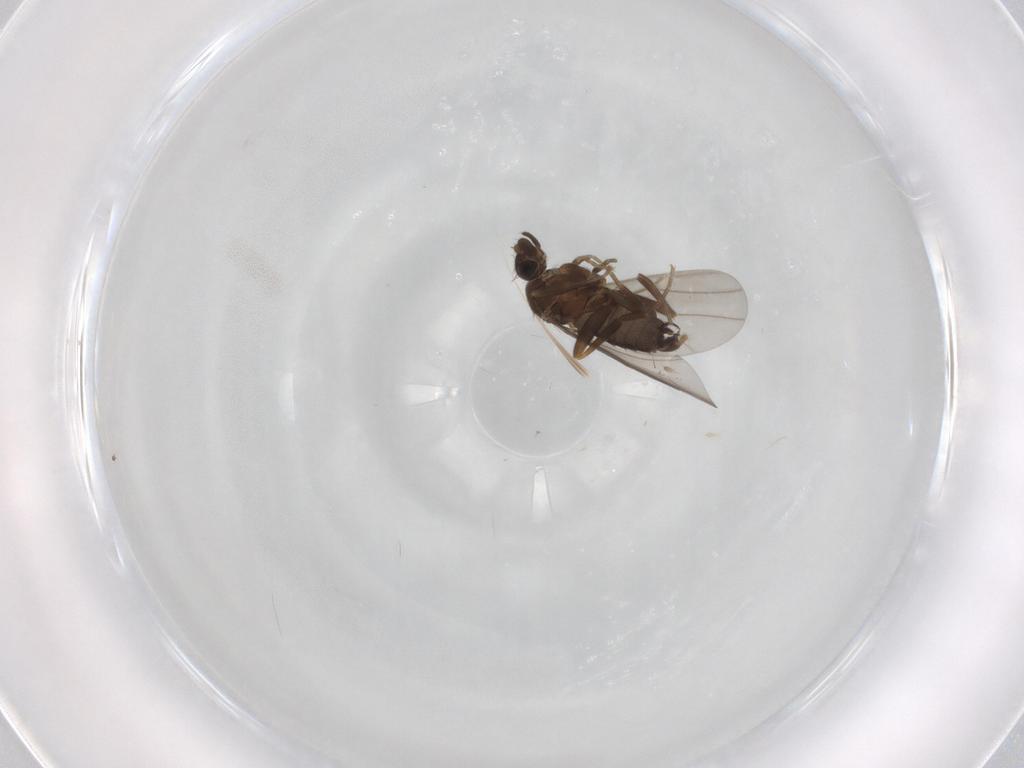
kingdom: Animalia
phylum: Arthropoda
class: Insecta
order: Diptera
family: Phoridae
